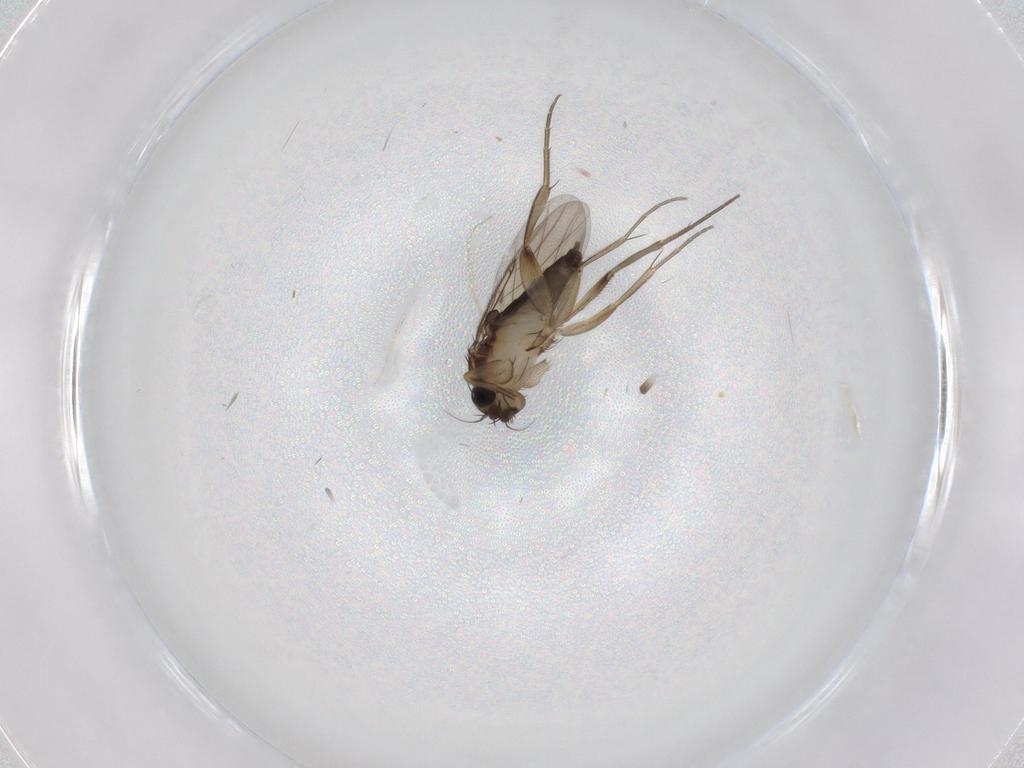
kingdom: Animalia
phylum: Arthropoda
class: Insecta
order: Diptera
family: Phoridae
